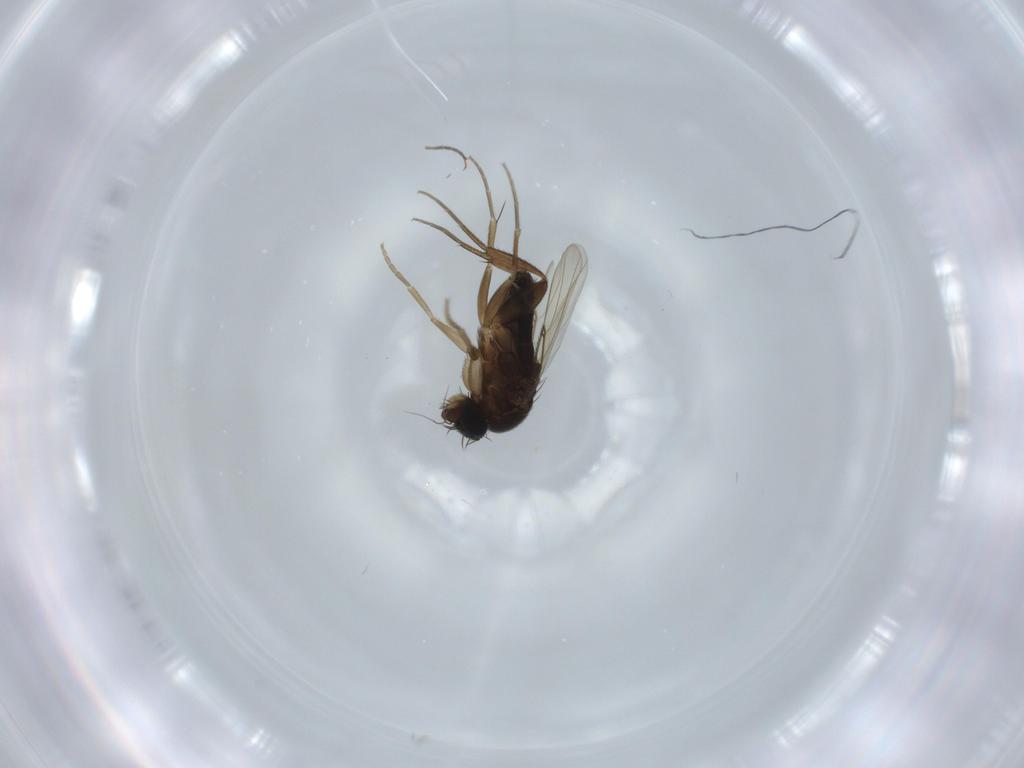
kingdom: Animalia
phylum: Arthropoda
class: Insecta
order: Diptera
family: Phoridae
